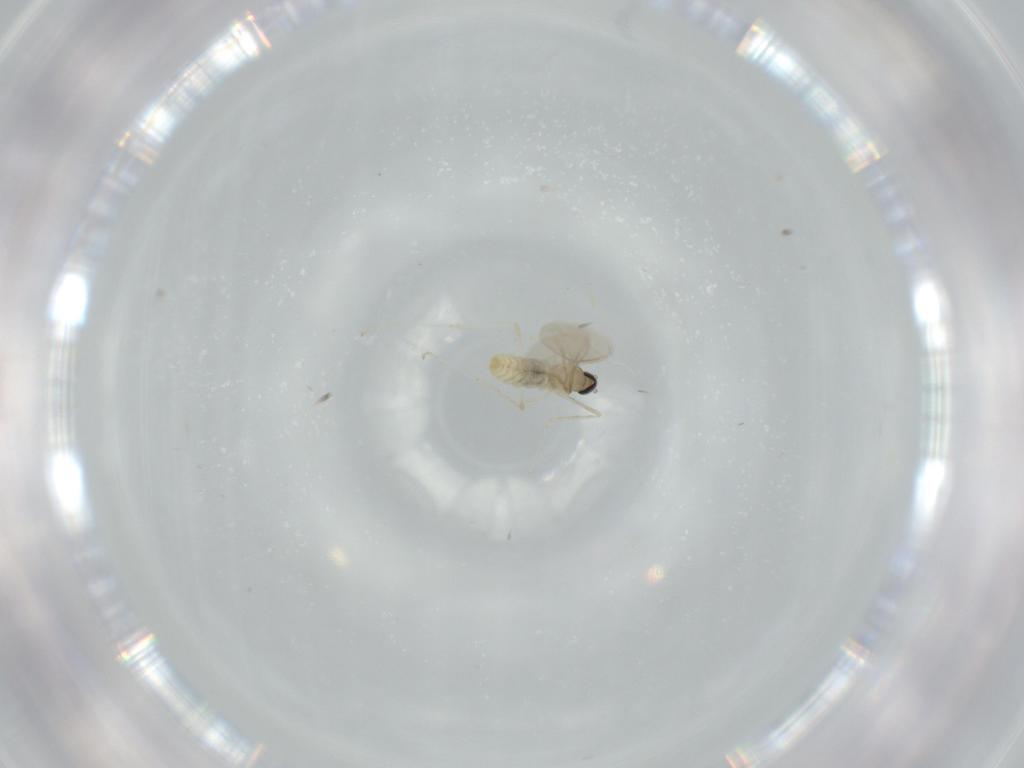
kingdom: Animalia
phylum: Arthropoda
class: Insecta
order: Diptera
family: Cecidomyiidae
